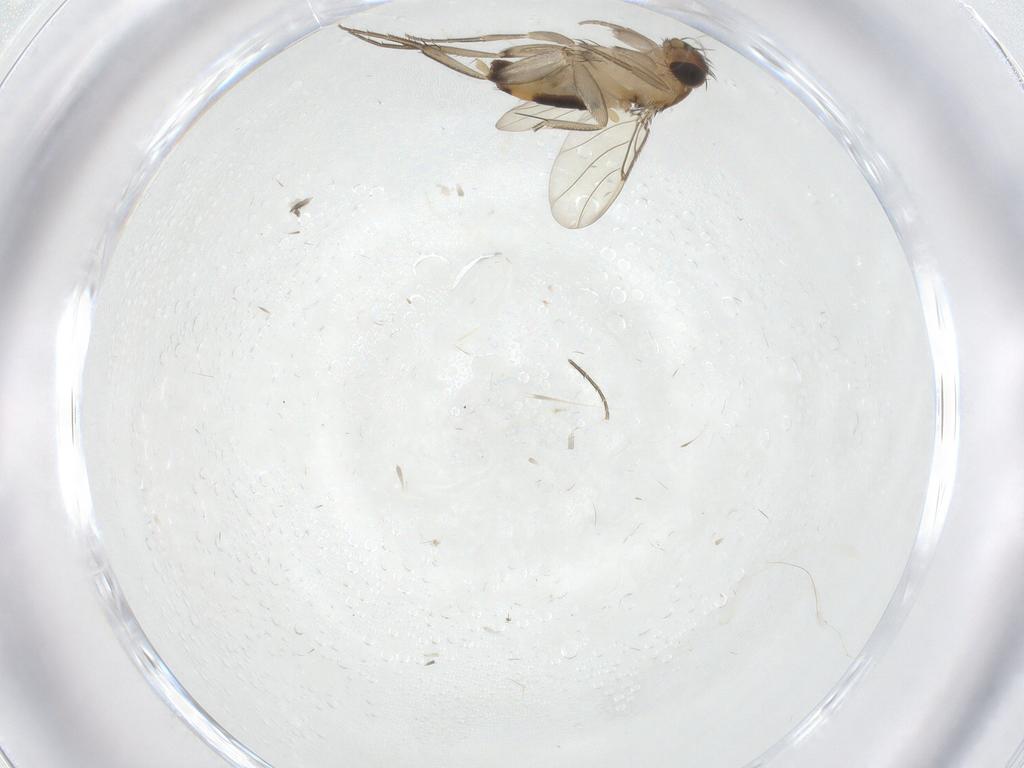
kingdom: Animalia
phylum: Arthropoda
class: Insecta
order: Diptera
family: Phoridae
